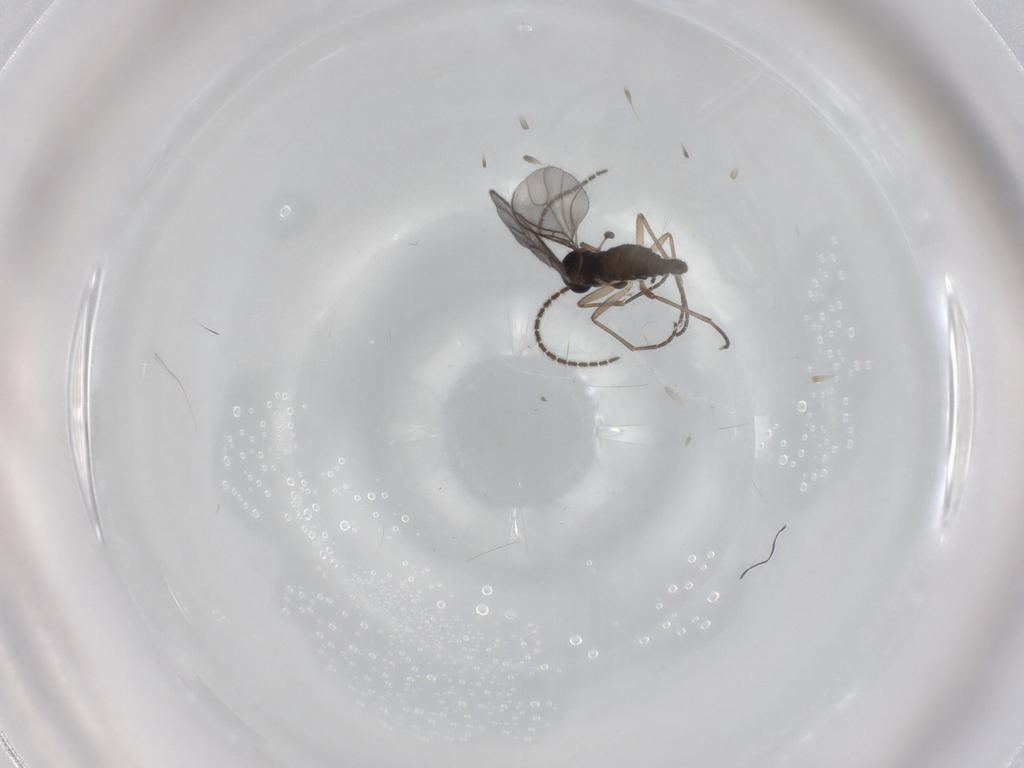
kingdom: Animalia
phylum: Arthropoda
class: Insecta
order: Diptera
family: Sciaridae
